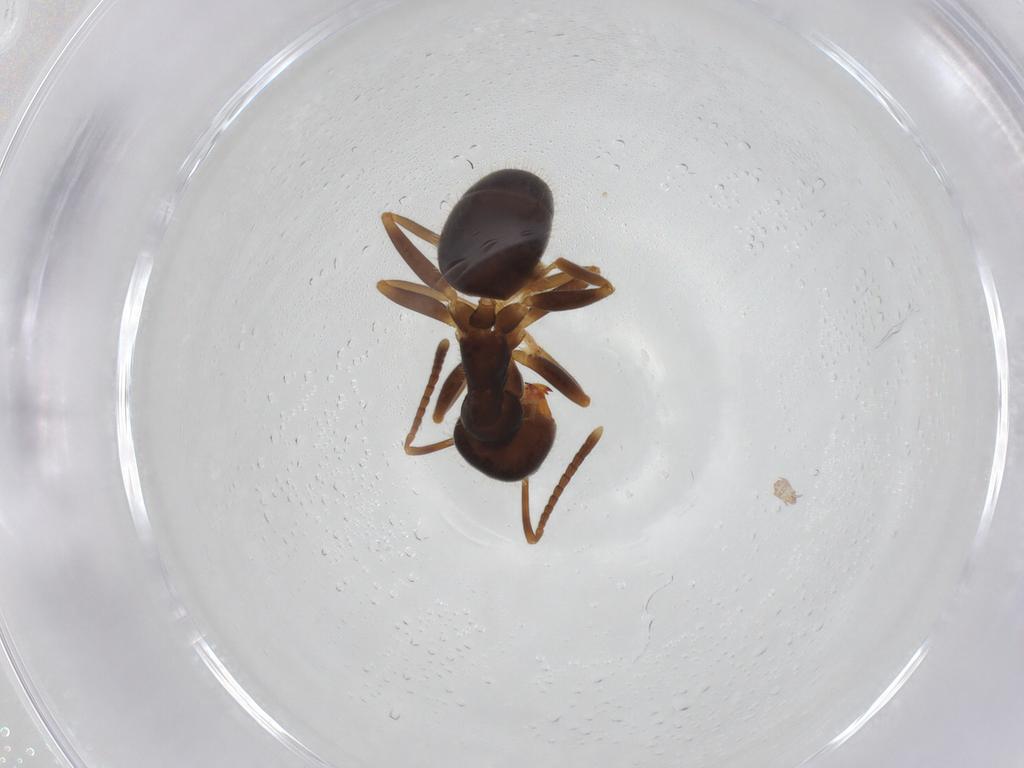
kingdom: Animalia
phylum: Arthropoda
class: Insecta
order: Hymenoptera
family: Formicidae
